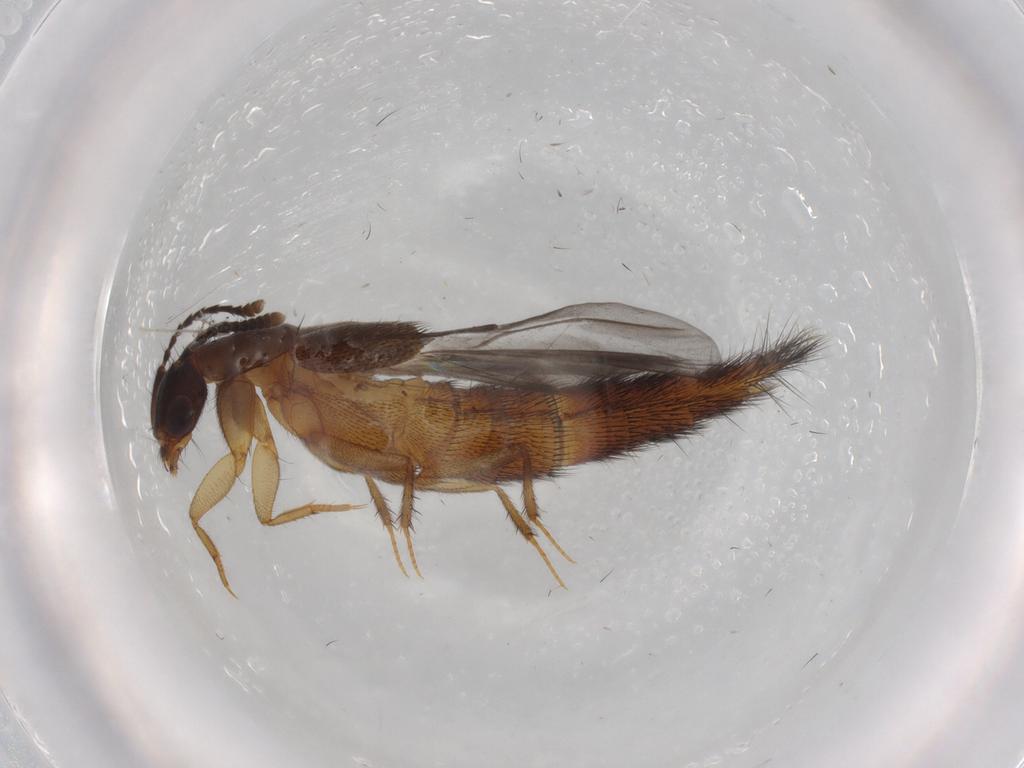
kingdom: Animalia
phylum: Arthropoda
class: Insecta
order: Coleoptera
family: Staphylinidae
